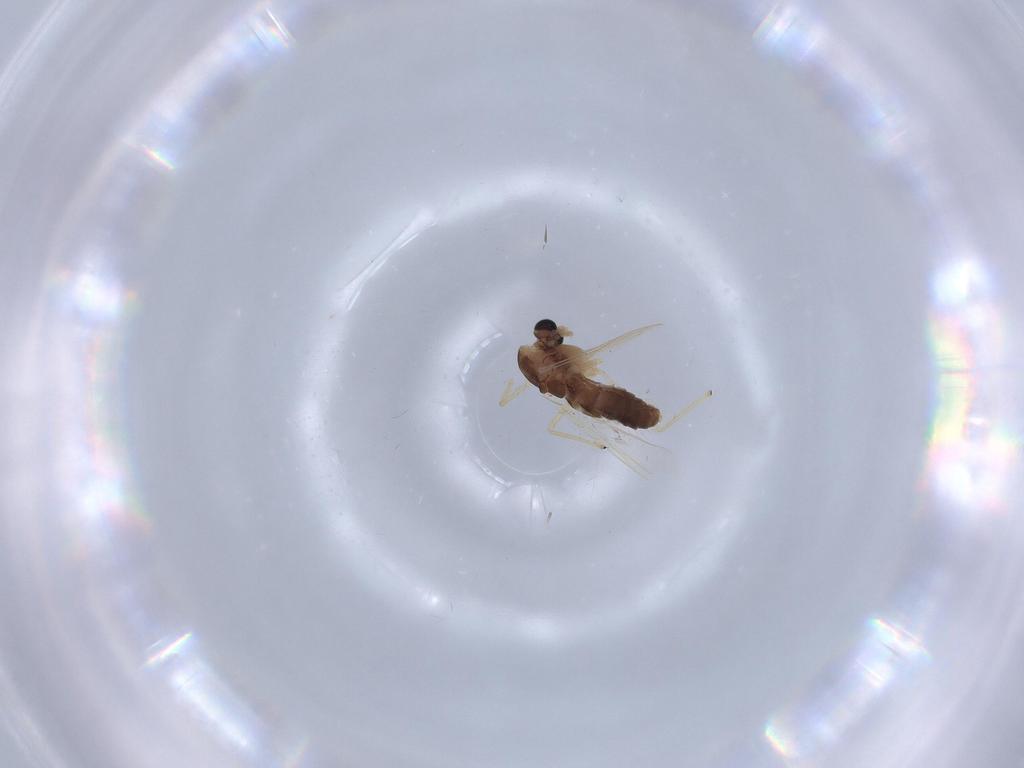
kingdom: Animalia
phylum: Arthropoda
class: Insecta
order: Diptera
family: Chironomidae
